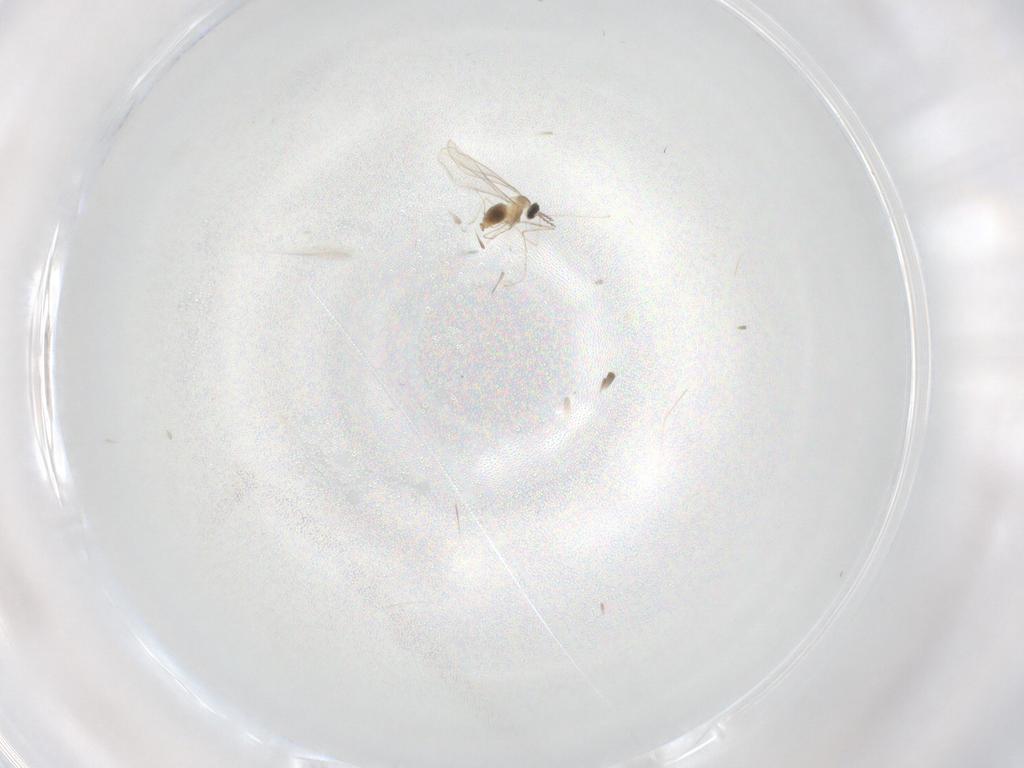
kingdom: Animalia
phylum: Arthropoda
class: Insecta
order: Diptera
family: Cecidomyiidae
